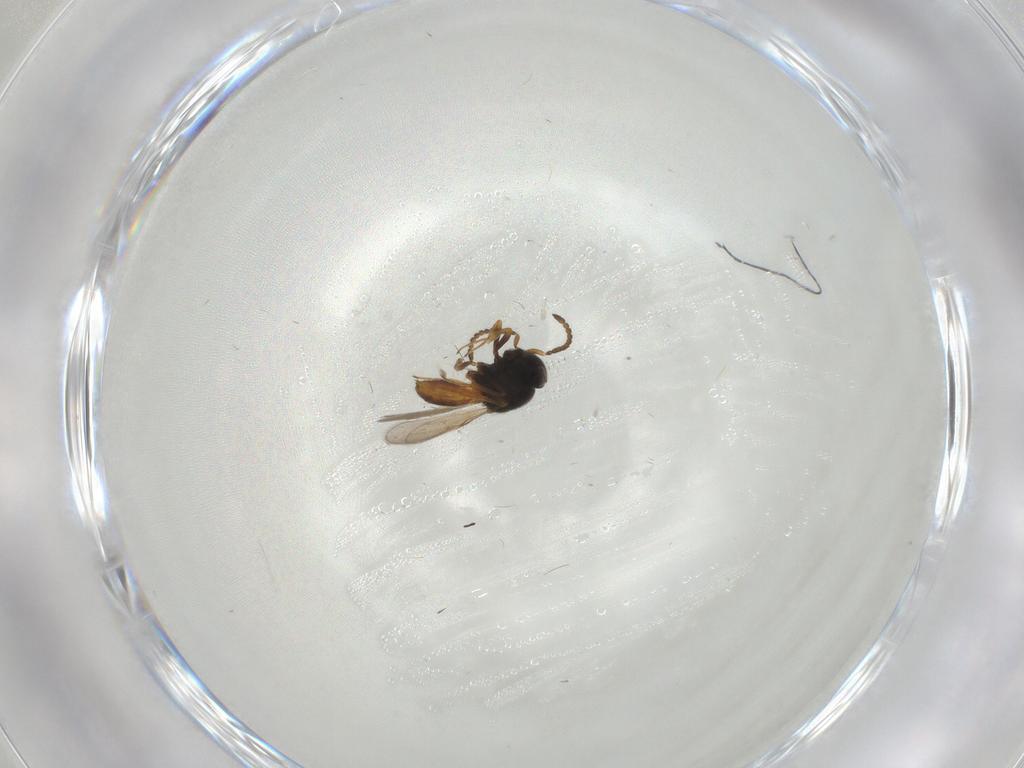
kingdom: Animalia
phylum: Arthropoda
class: Insecta
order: Hymenoptera
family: Scelionidae
